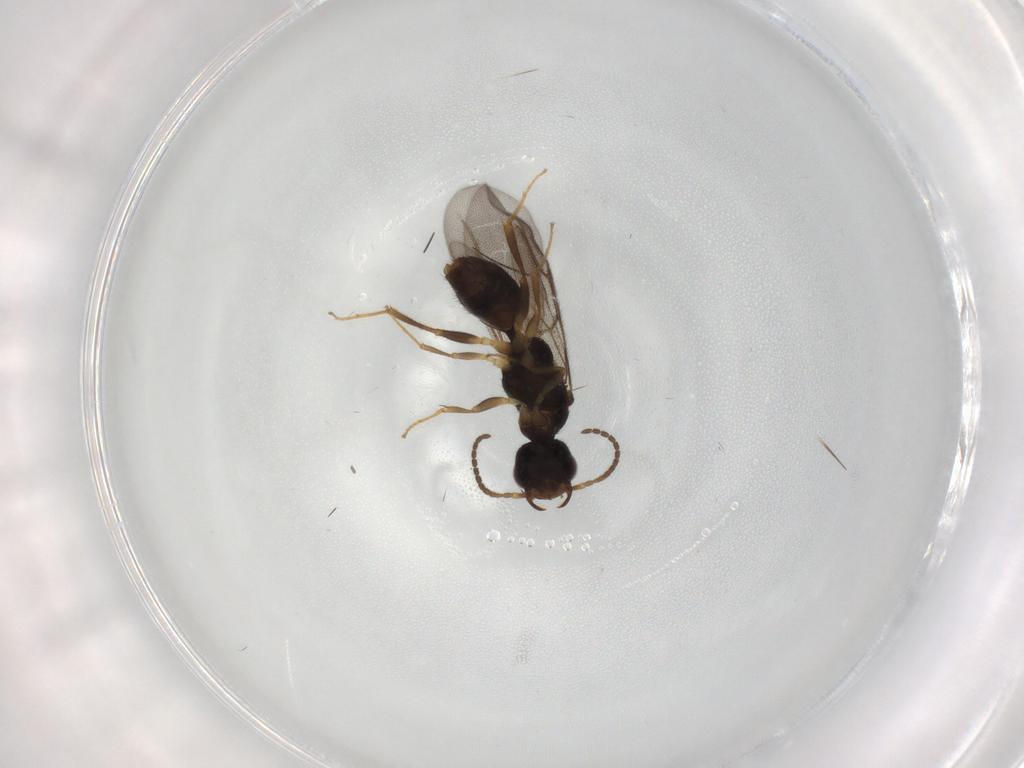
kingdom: Animalia
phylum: Arthropoda
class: Insecta
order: Hymenoptera
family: Bethylidae
